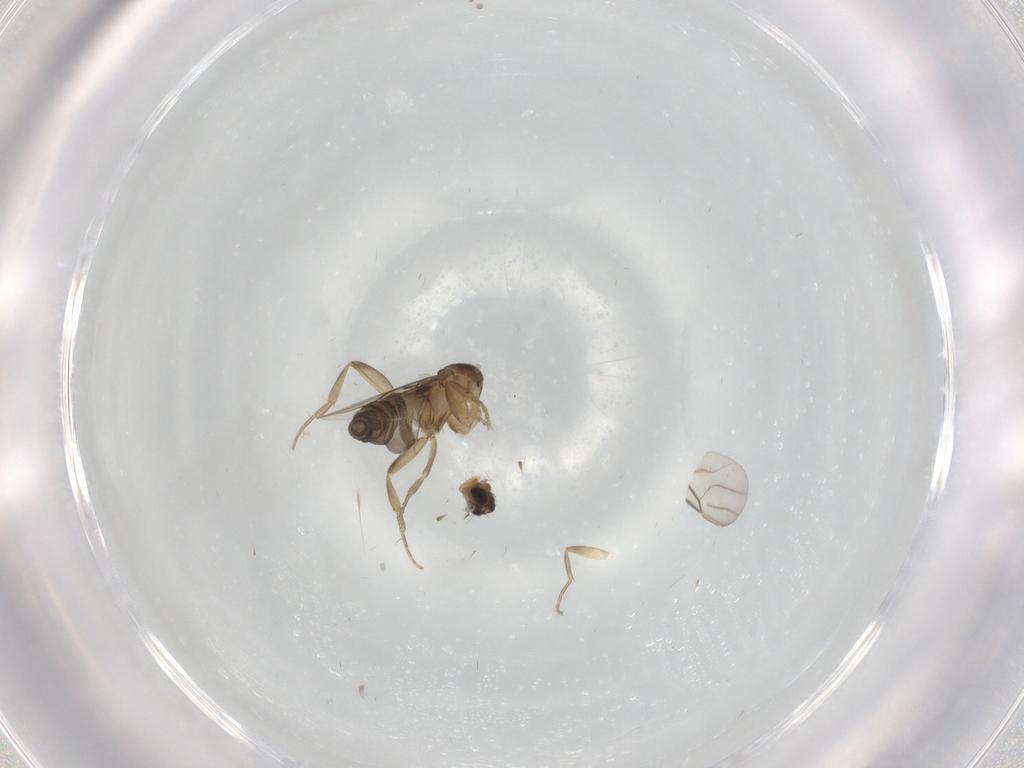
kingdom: Animalia
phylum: Arthropoda
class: Insecta
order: Diptera
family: Phoridae
